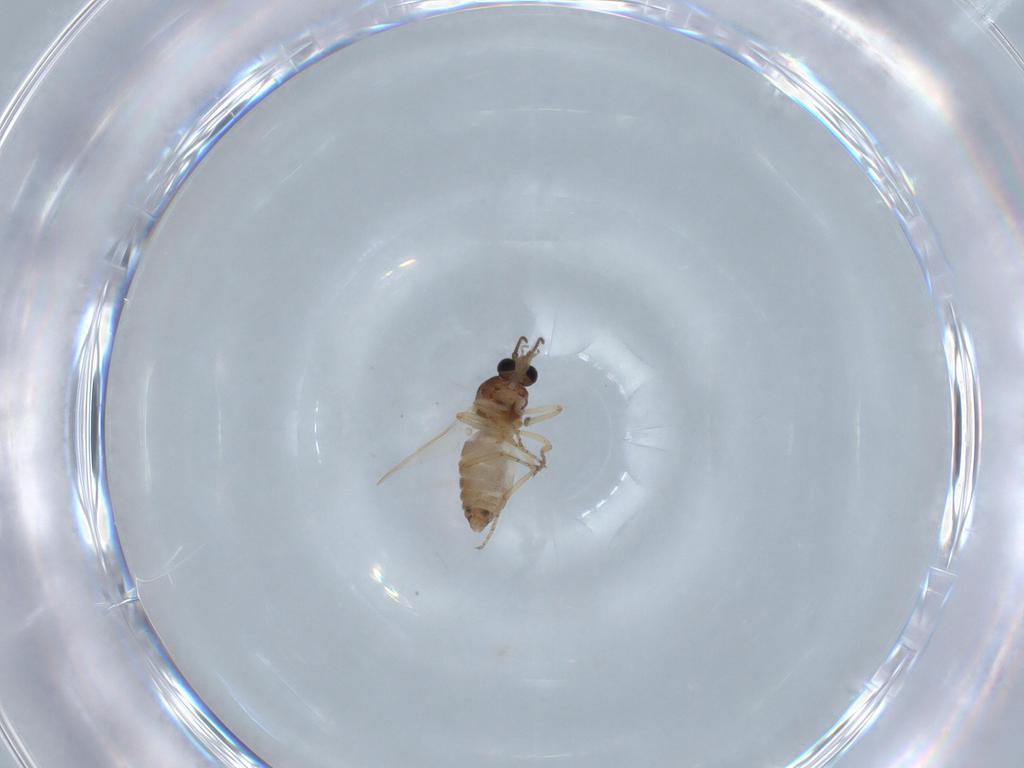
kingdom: Animalia
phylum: Arthropoda
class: Insecta
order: Diptera
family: Ceratopogonidae
